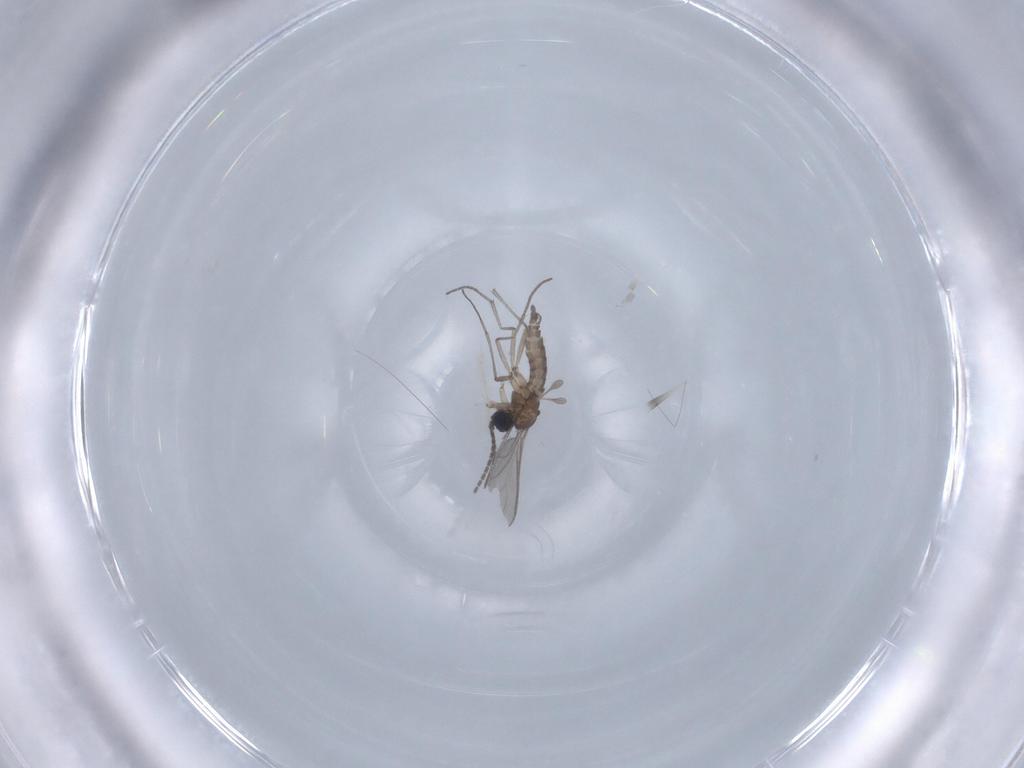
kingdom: Animalia
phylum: Arthropoda
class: Insecta
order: Diptera
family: Sciaridae
